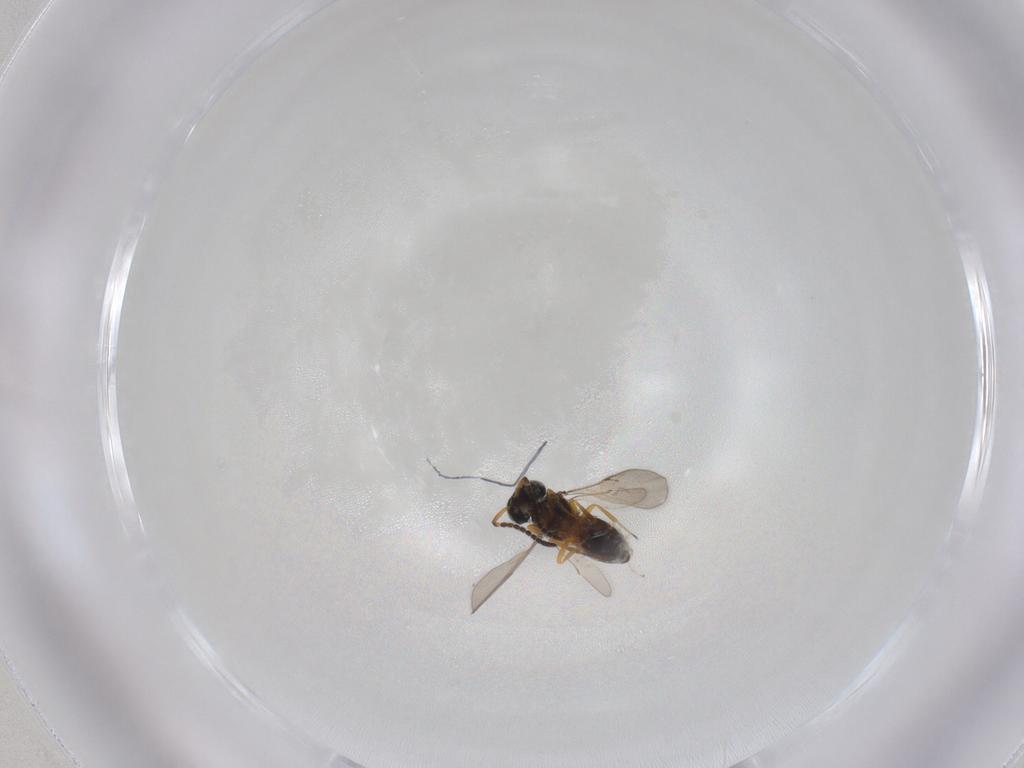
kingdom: Animalia
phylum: Arthropoda
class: Insecta
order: Hymenoptera
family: Scelionidae
